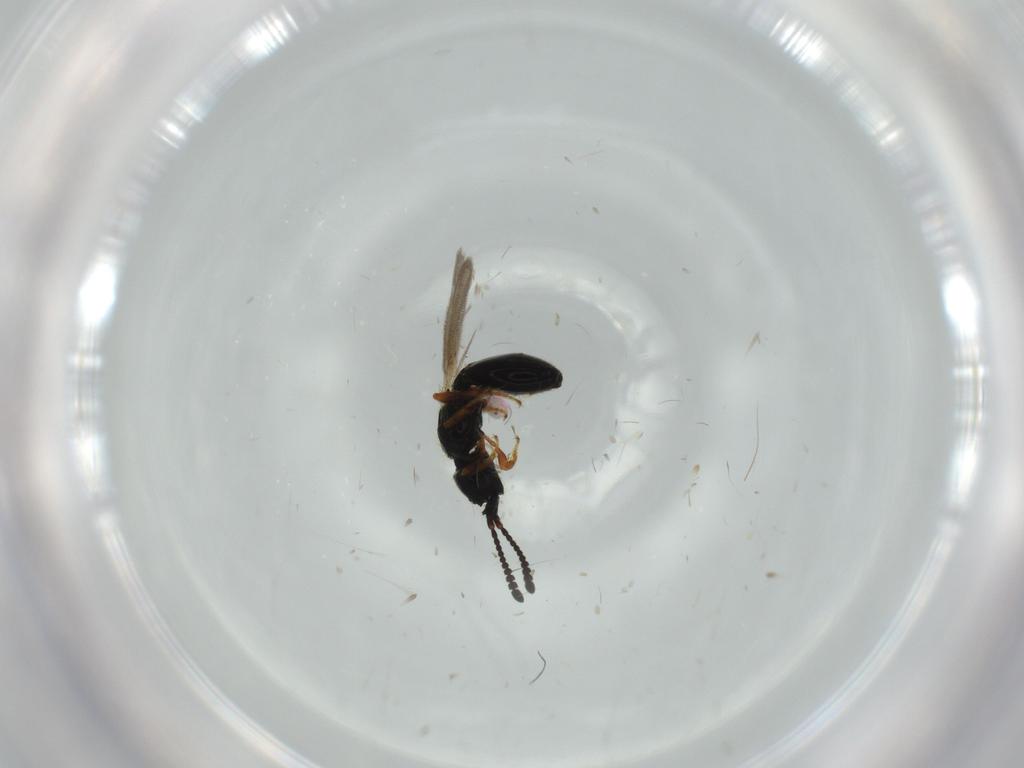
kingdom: Animalia
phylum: Arthropoda
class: Insecta
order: Hymenoptera
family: Diapriidae
